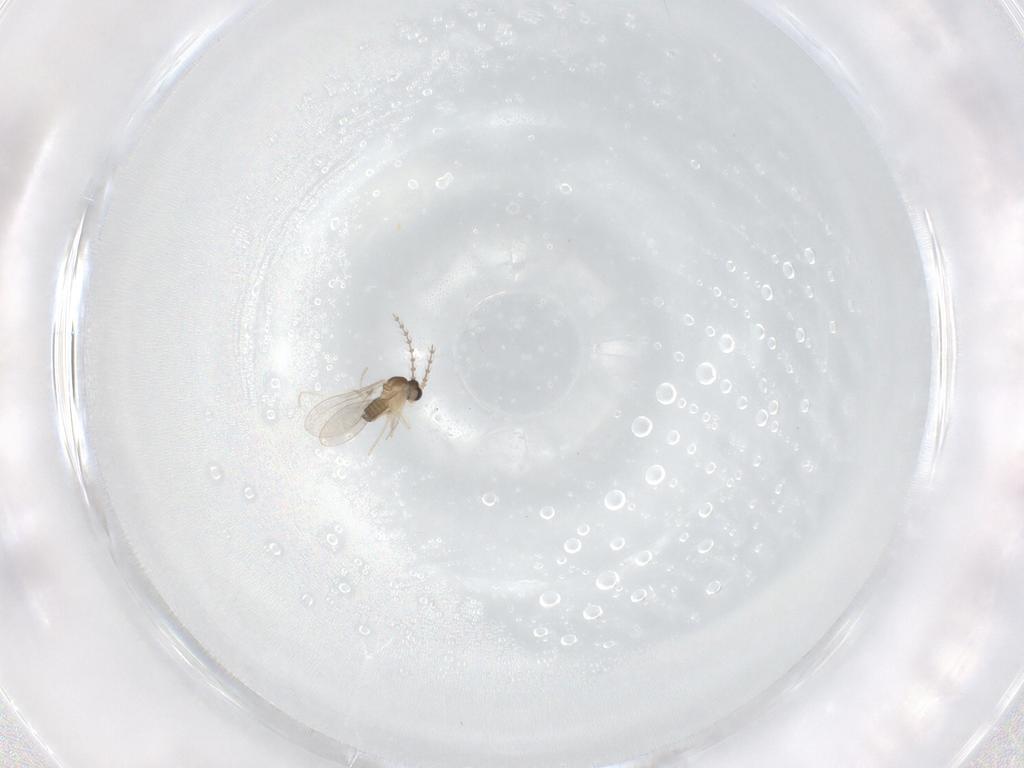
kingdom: Animalia
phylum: Arthropoda
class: Insecta
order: Diptera
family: Cecidomyiidae
